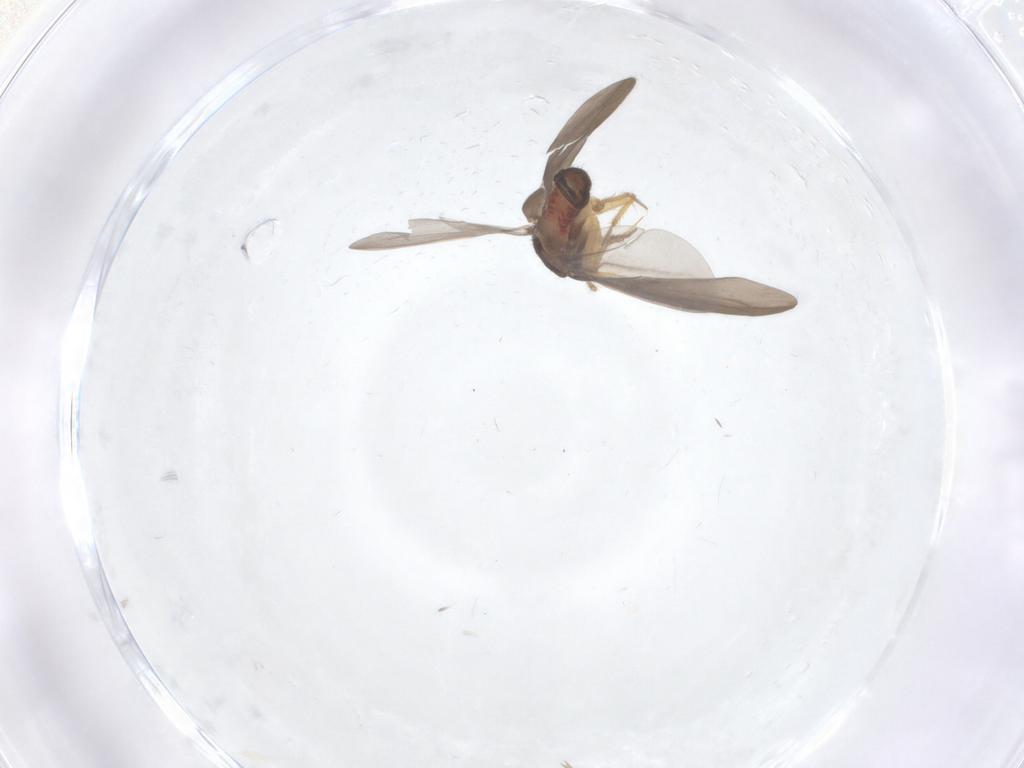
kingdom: Animalia
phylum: Arthropoda
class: Insecta
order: Hemiptera
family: Ceratocombidae
